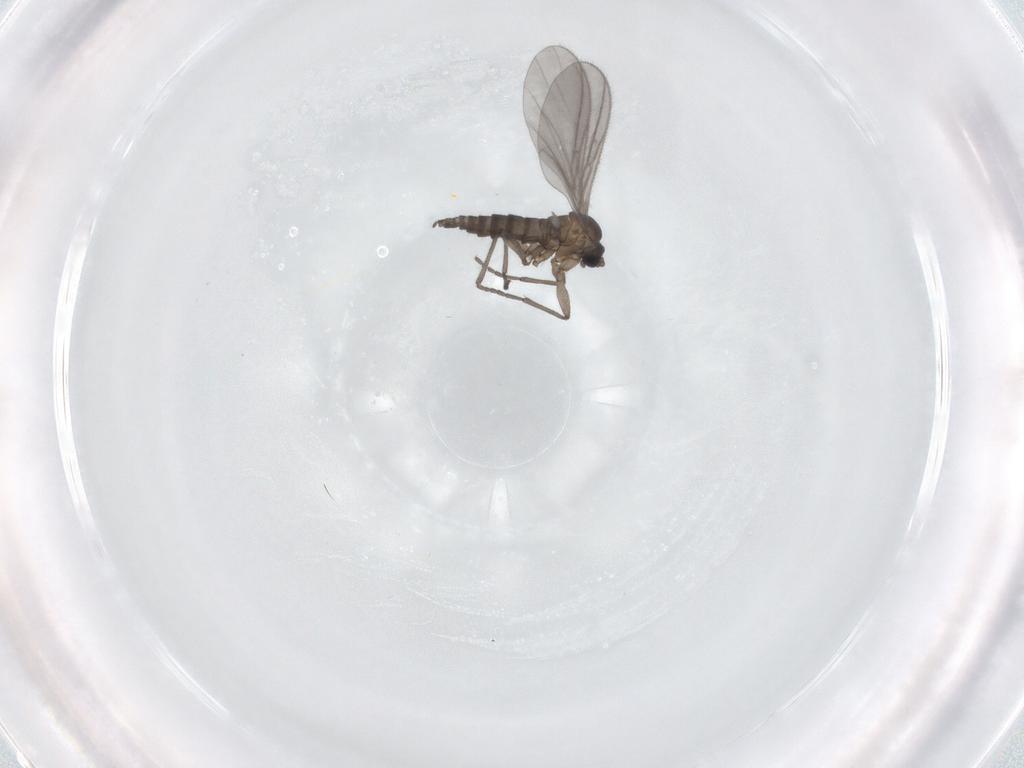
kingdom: Animalia
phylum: Arthropoda
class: Insecta
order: Diptera
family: Sciaridae
